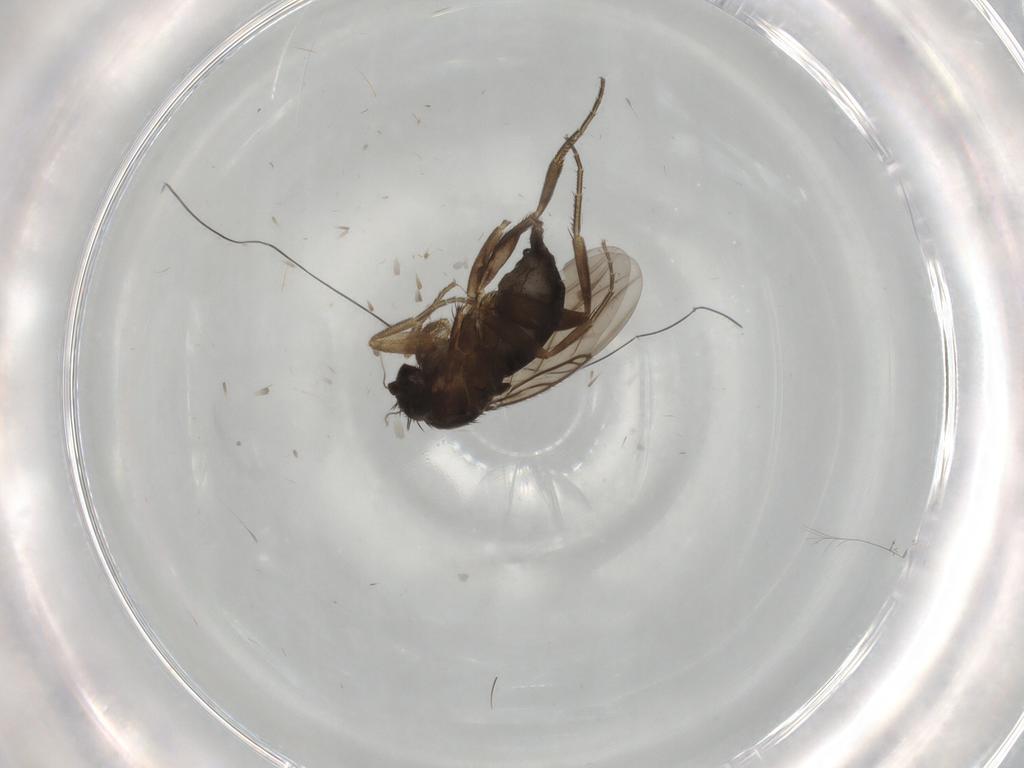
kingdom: Animalia
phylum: Arthropoda
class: Insecta
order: Diptera
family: Phoridae
